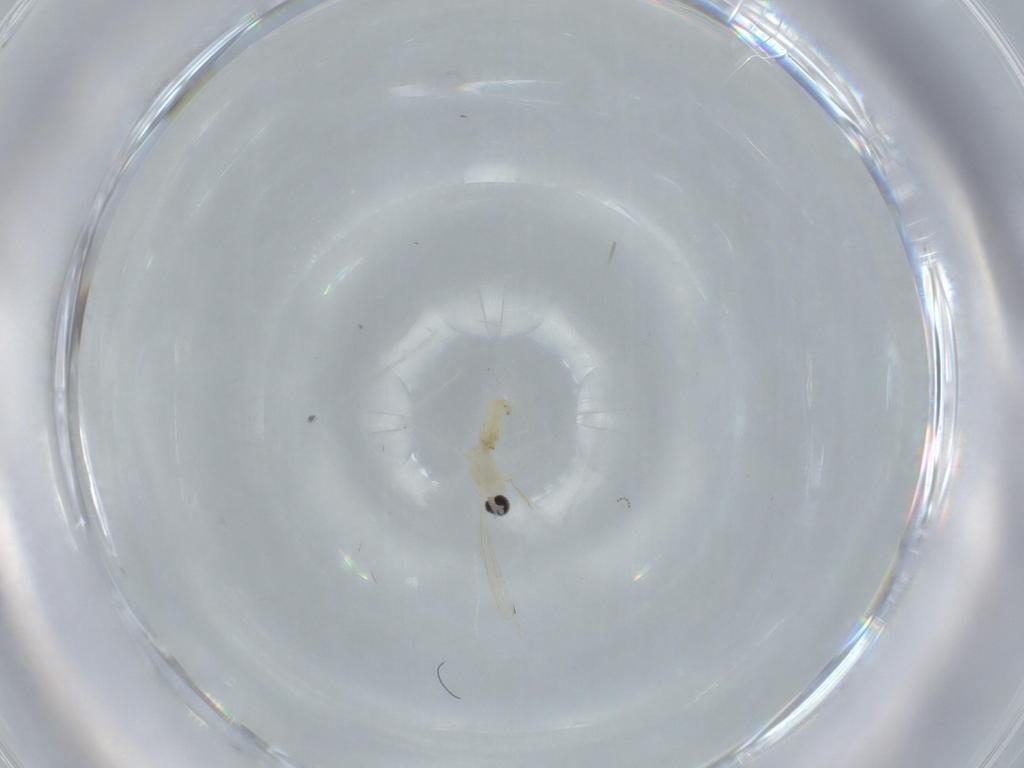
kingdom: Animalia
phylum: Arthropoda
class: Insecta
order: Diptera
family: Cecidomyiidae
